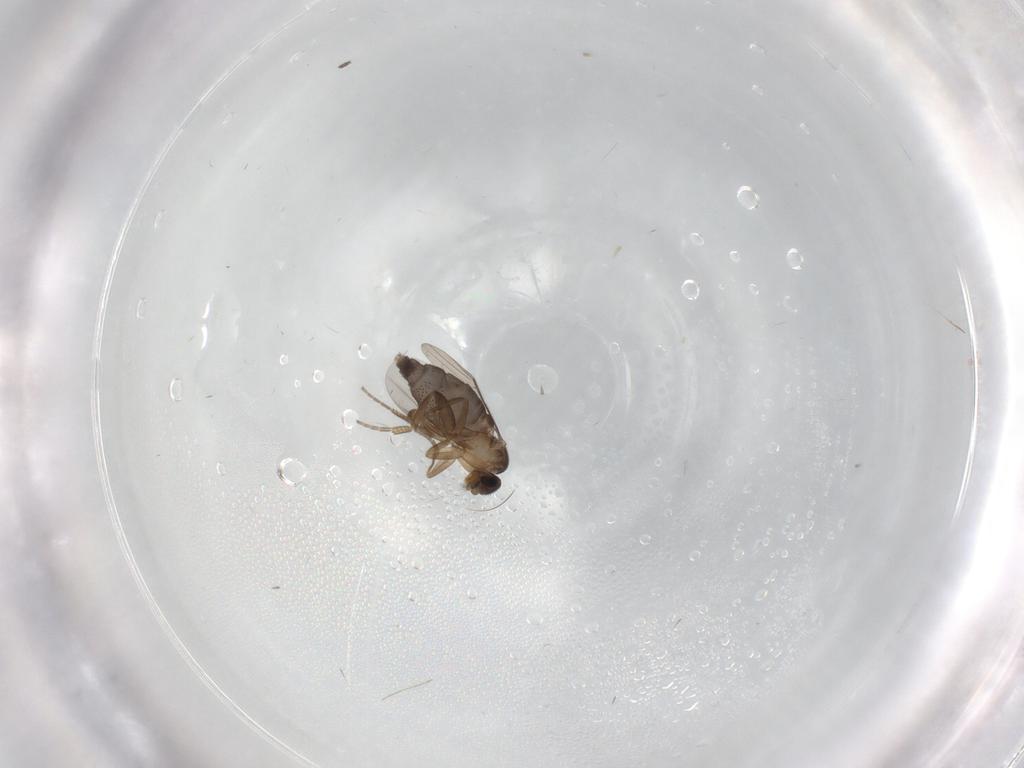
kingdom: Animalia
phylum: Arthropoda
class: Insecta
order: Diptera
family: Phoridae
